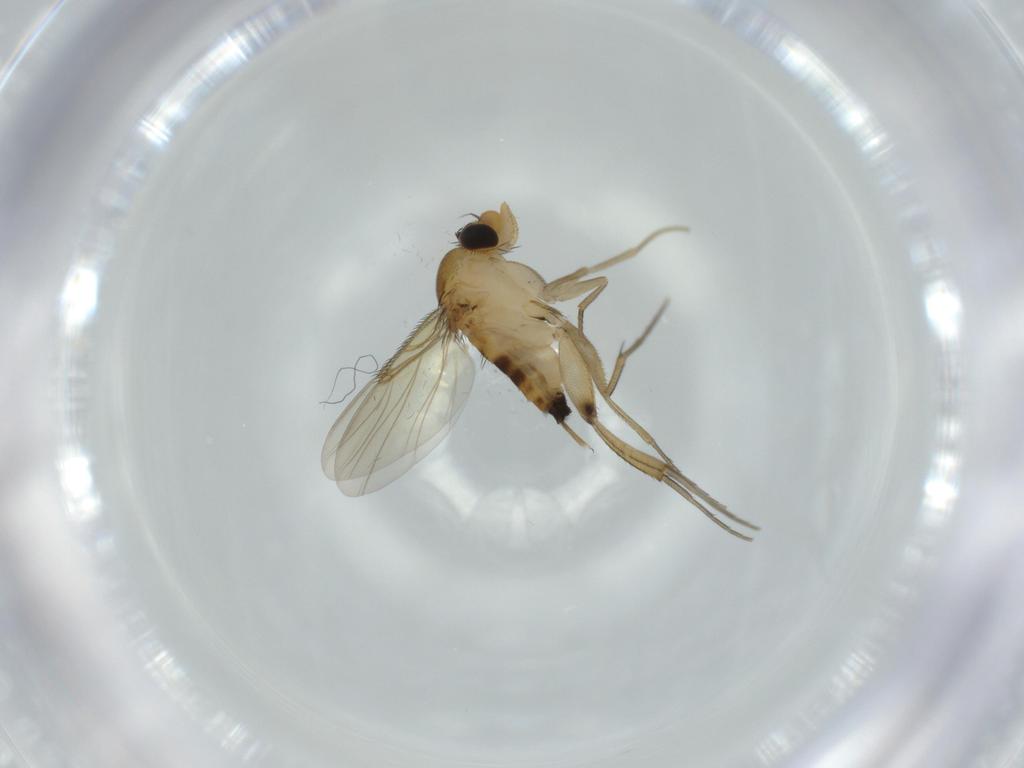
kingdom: Animalia
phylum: Arthropoda
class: Insecta
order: Diptera
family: Phoridae
